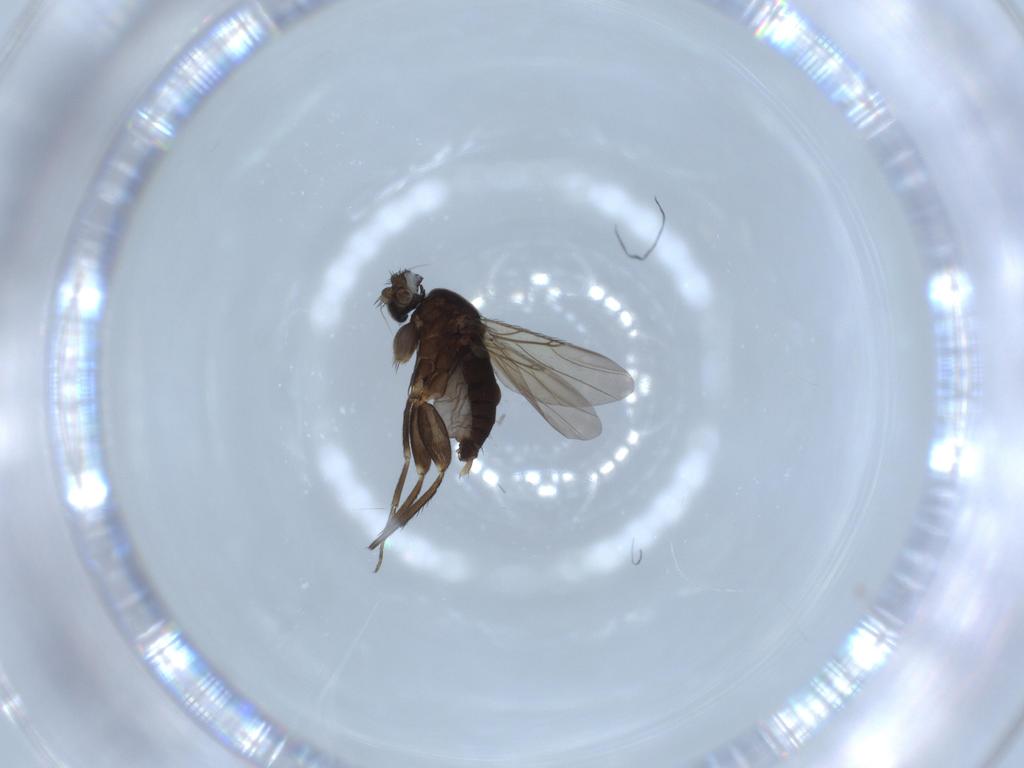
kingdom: Animalia
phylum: Arthropoda
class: Insecta
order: Diptera
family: Phoridae
